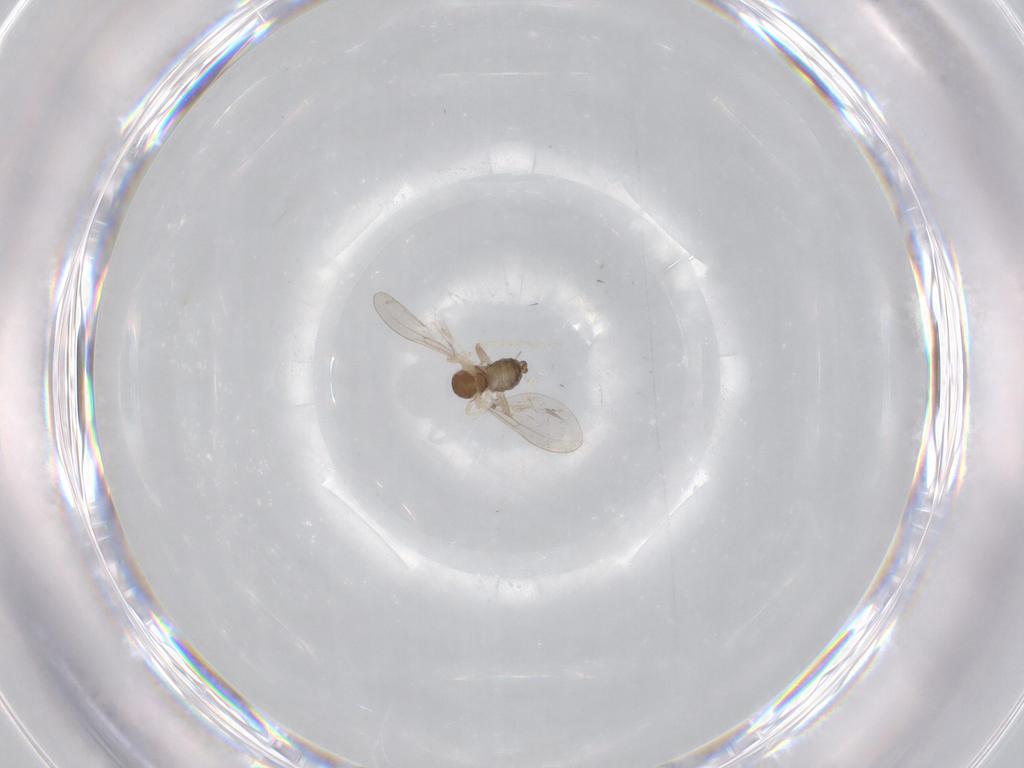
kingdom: Animalia
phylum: Arthropoda
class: Insecta
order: Diptera
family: Cecidomyiidae
